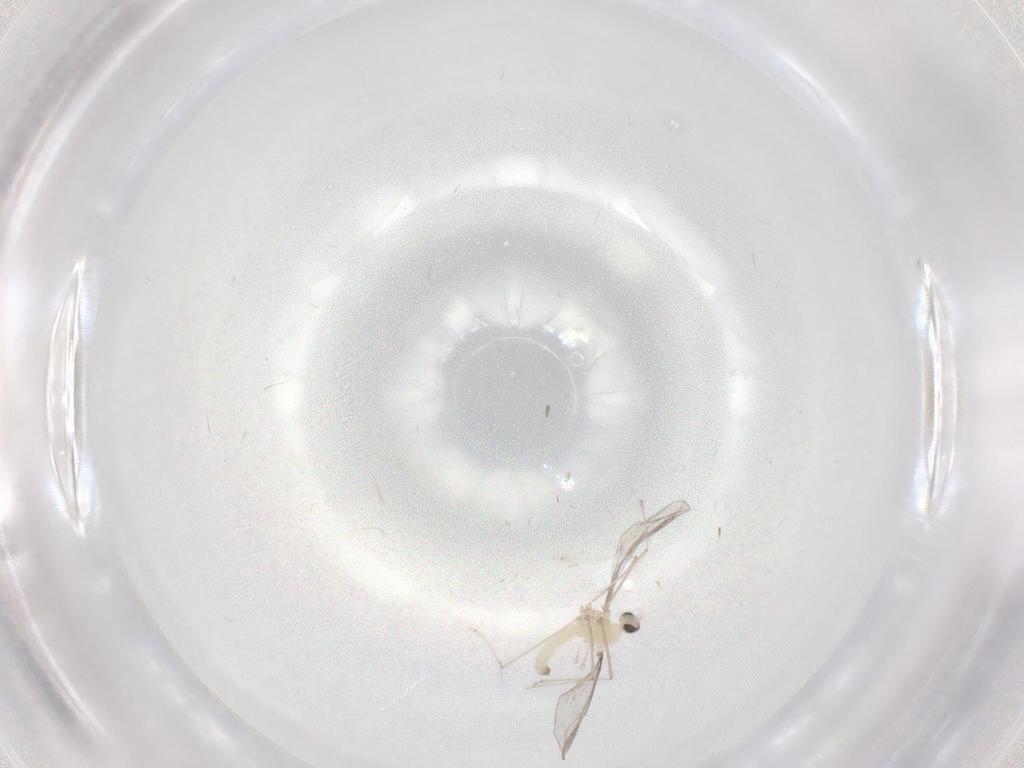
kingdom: Animalia
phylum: Arthropoda
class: Insecta
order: Diptera
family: Cecidomyiidae
